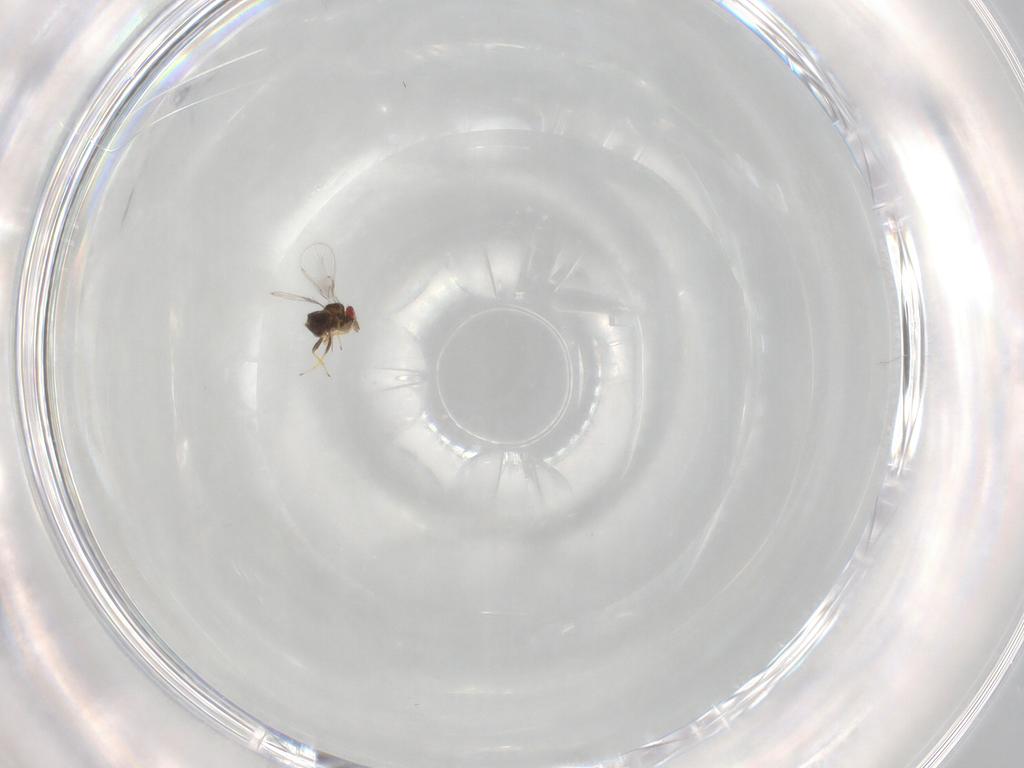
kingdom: Animalia
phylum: Arthropoda
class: Insecta
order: Hymenoptera
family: Trichogrammatidae
